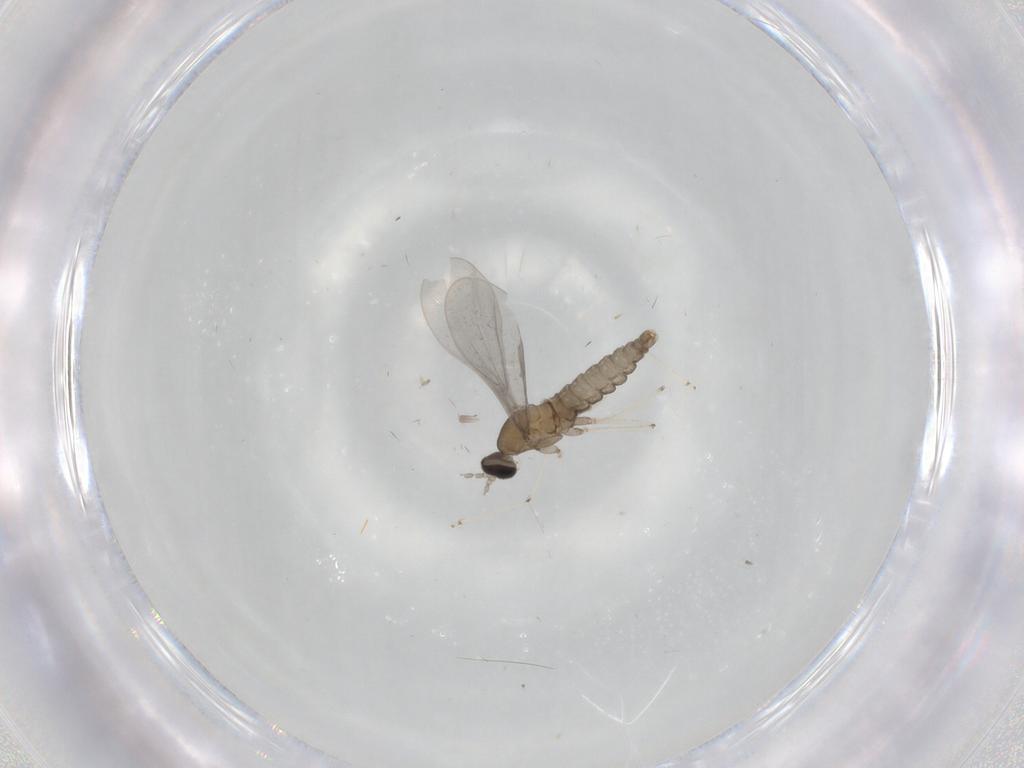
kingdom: Animalia
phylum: Arthropoda
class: Insecta
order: Diptera
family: Cecidomyiidae
